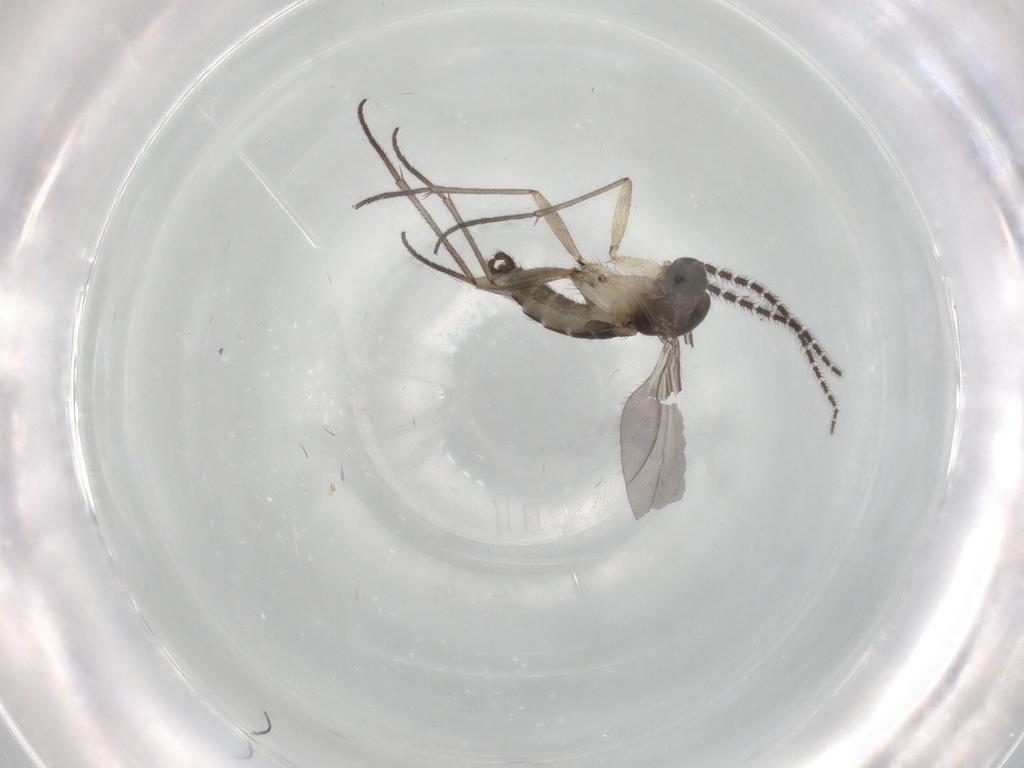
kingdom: Animalia
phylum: Arthropoda
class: Insecta
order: Diptera
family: Sciaridae
